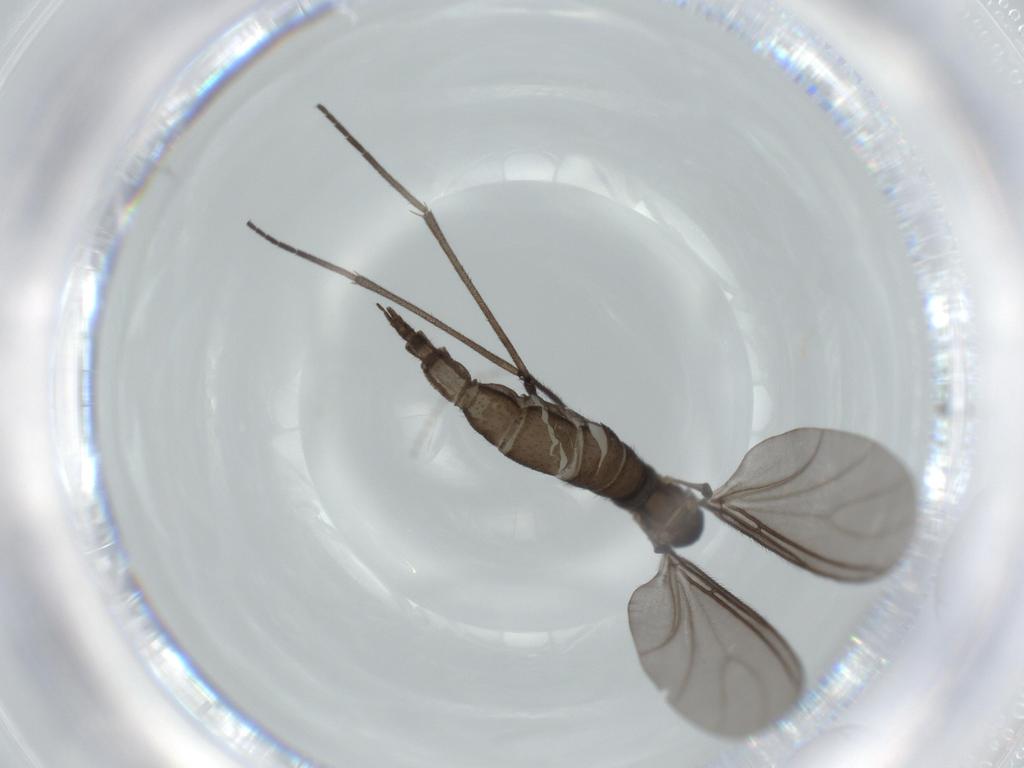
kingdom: Animalia
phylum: Arthropoda
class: Insecta
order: Diptera
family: Sciaridae
